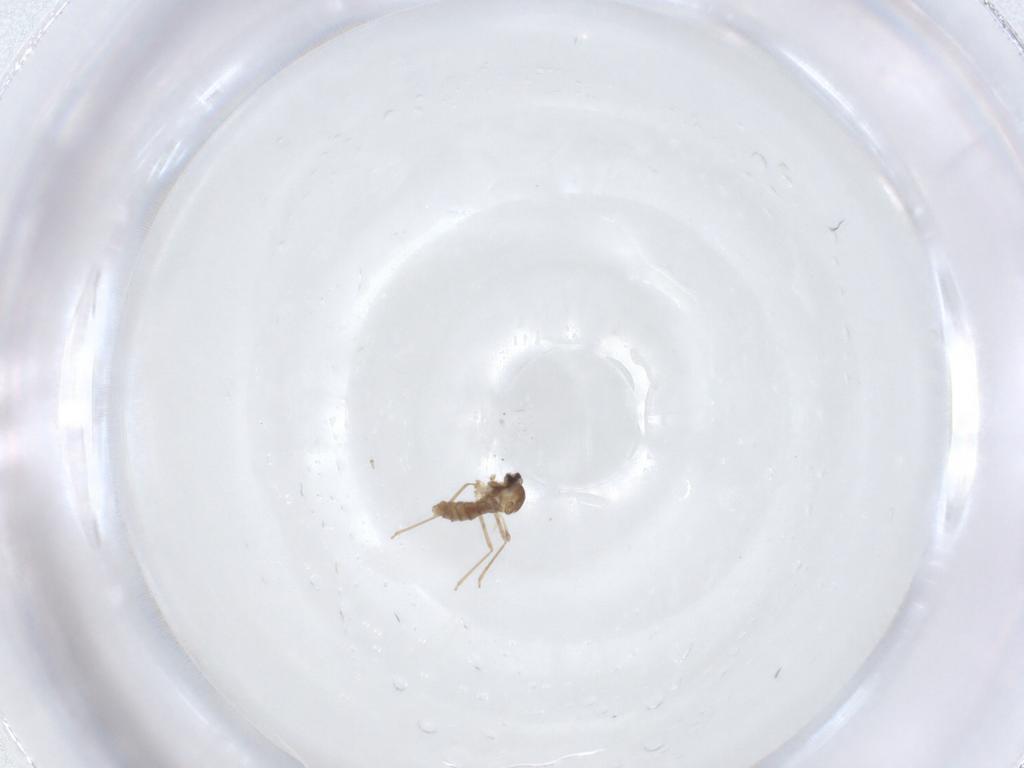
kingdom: Animalia
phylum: Arthropoda
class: Insecta
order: Diptera
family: Cecidomyiidae
